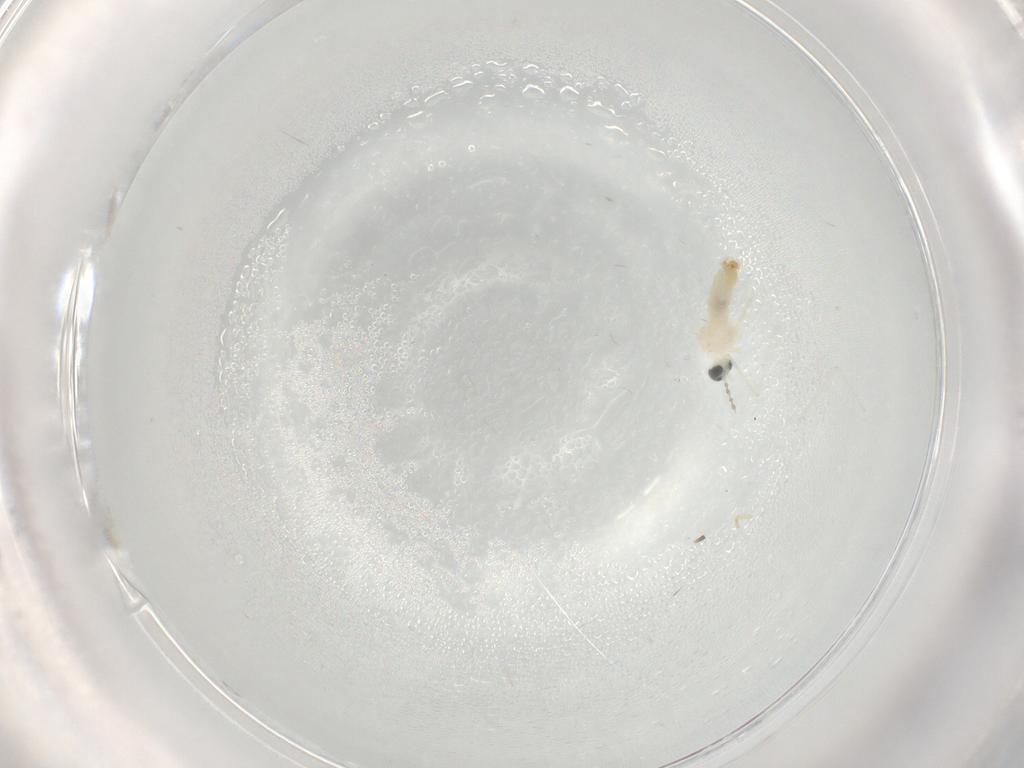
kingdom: Animalia
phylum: Arthropoda
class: Insecta
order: Diptera
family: Cecidomyiidae
